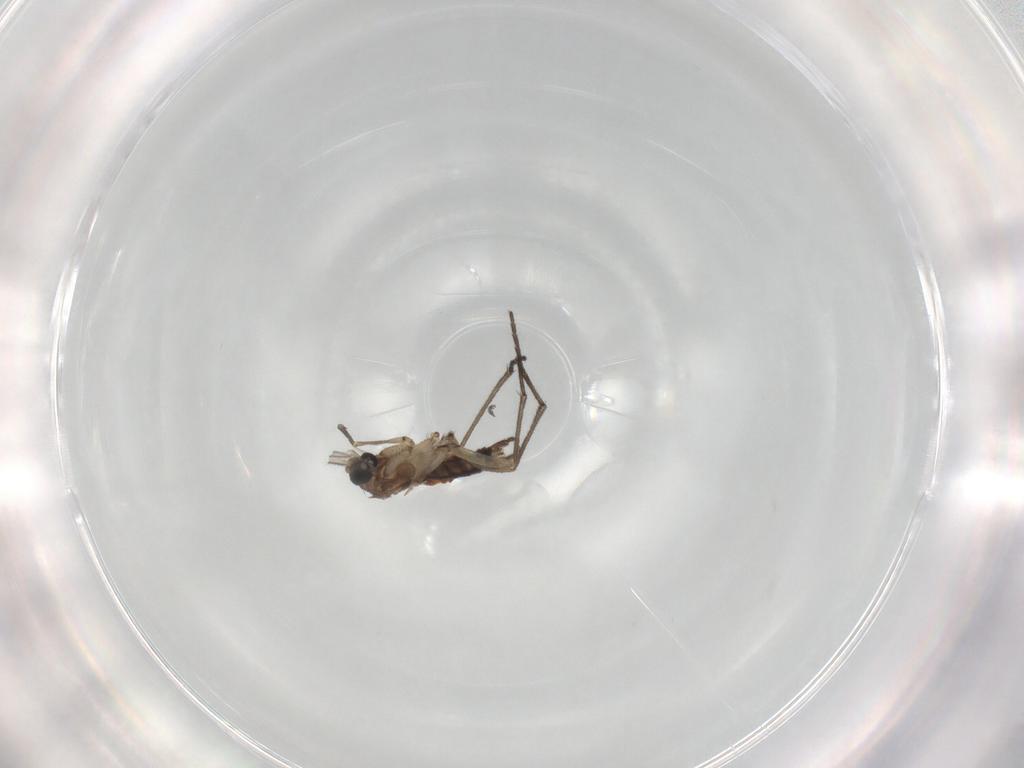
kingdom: Animalia
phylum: Arthropoda
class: Insecta
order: Diptera
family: Sciaridae
